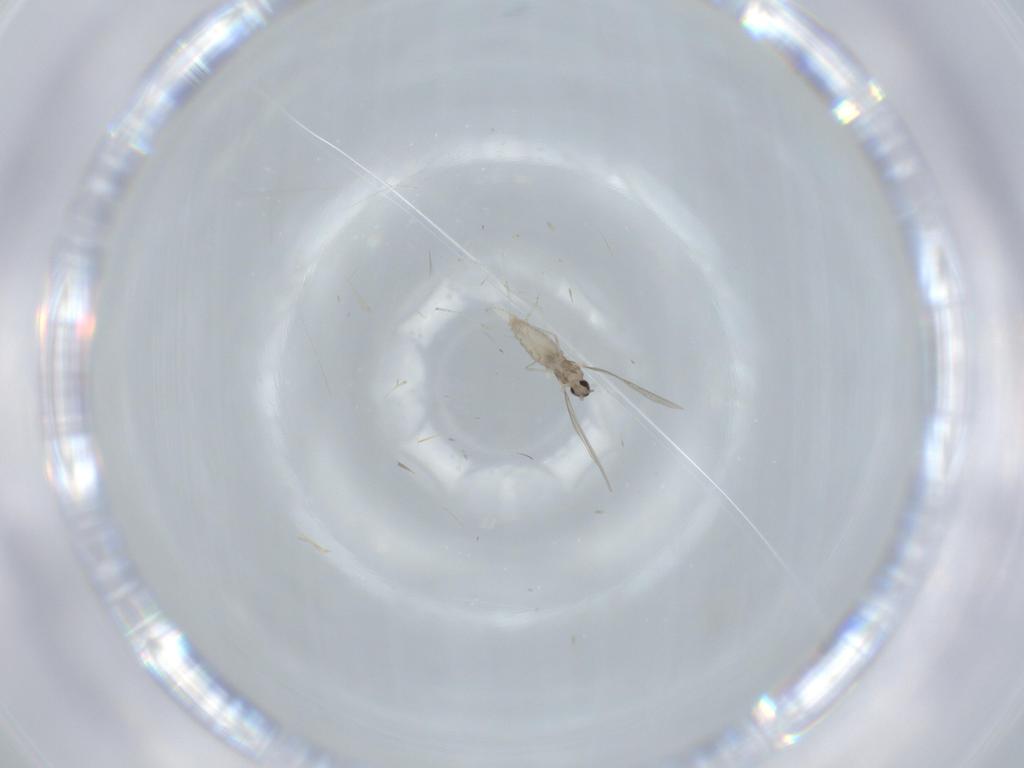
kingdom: Animalia
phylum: Arthropoda
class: Insecta
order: Diptera
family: Cecidomyiidae
